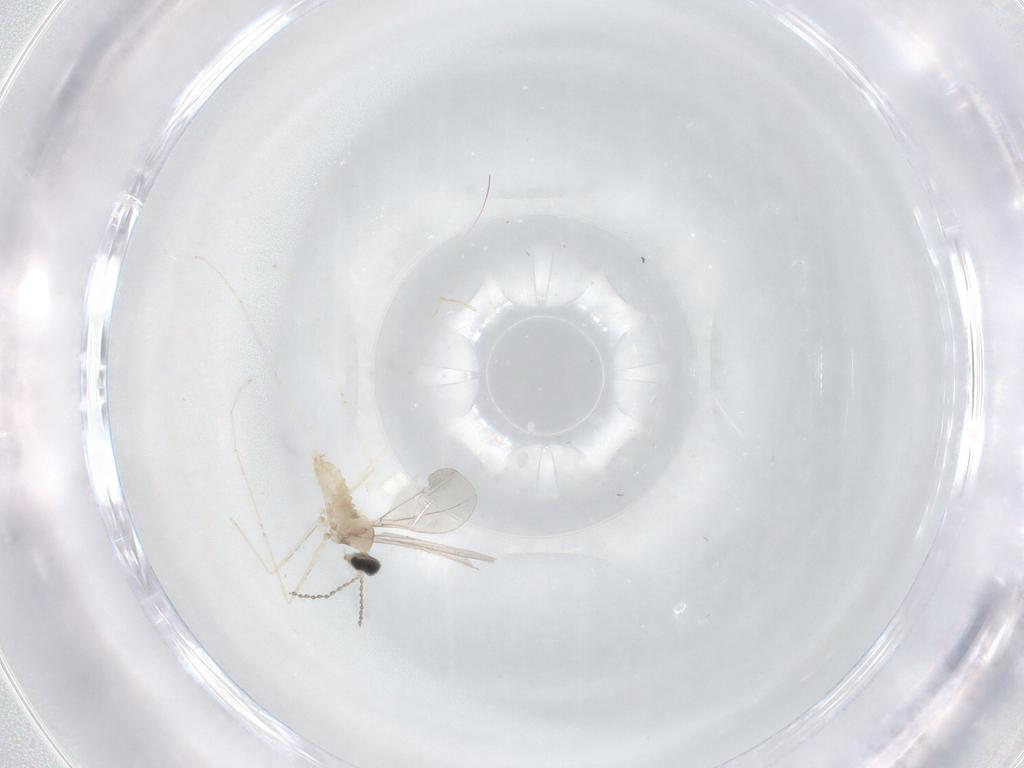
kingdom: Animalia
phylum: Arthropoda
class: Insecta
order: Diptera
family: Cecidomyiidae
